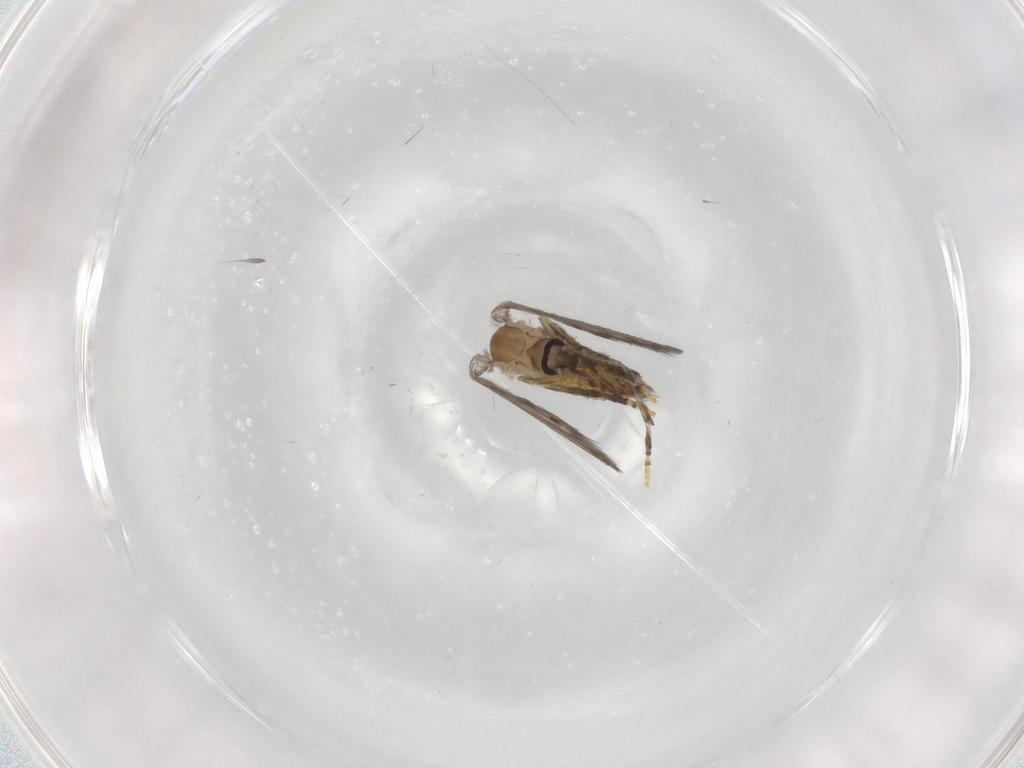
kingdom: Animalia
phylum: Arthropoda
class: Insecta
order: Diptera
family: Psychodidae
